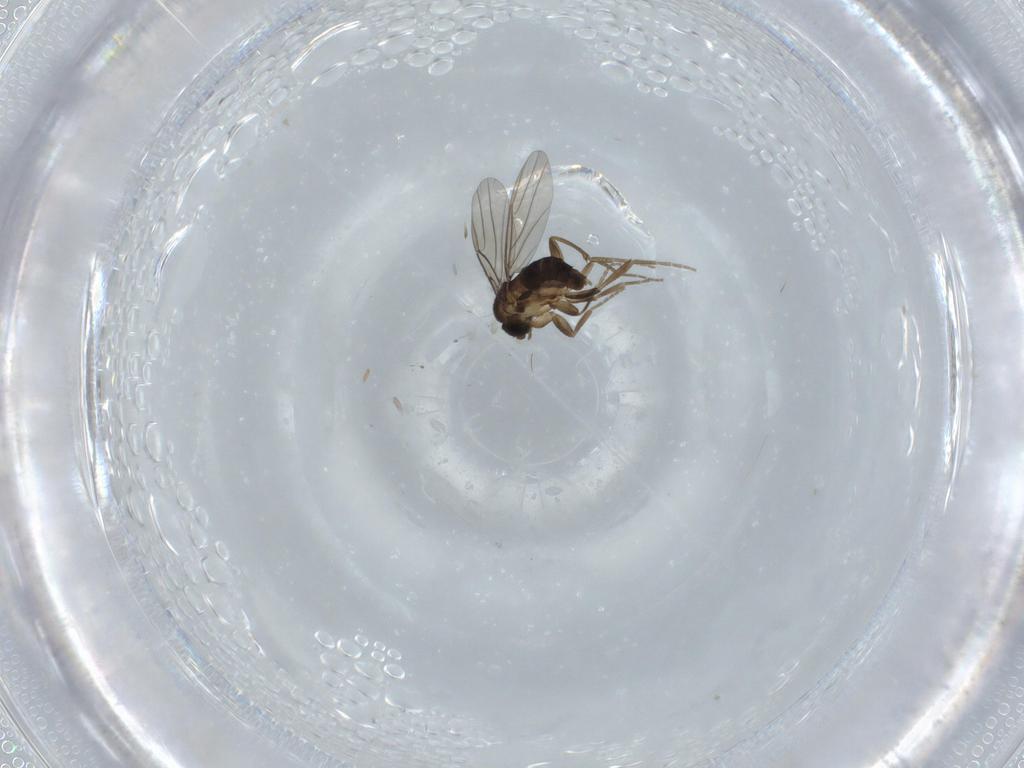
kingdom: Animalia
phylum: Arthropoda
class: Insecta
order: Diptera
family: Phoridae
